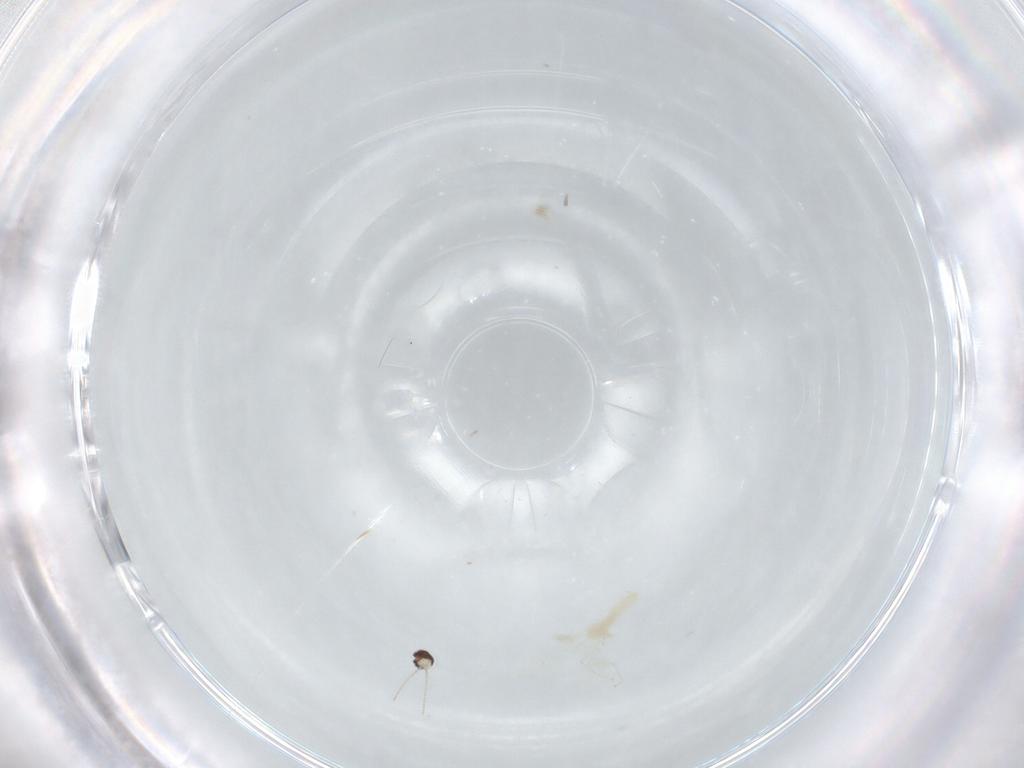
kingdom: Animalia
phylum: Arthropoda
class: Insecta
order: Diptera
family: Cecidomyiidae
